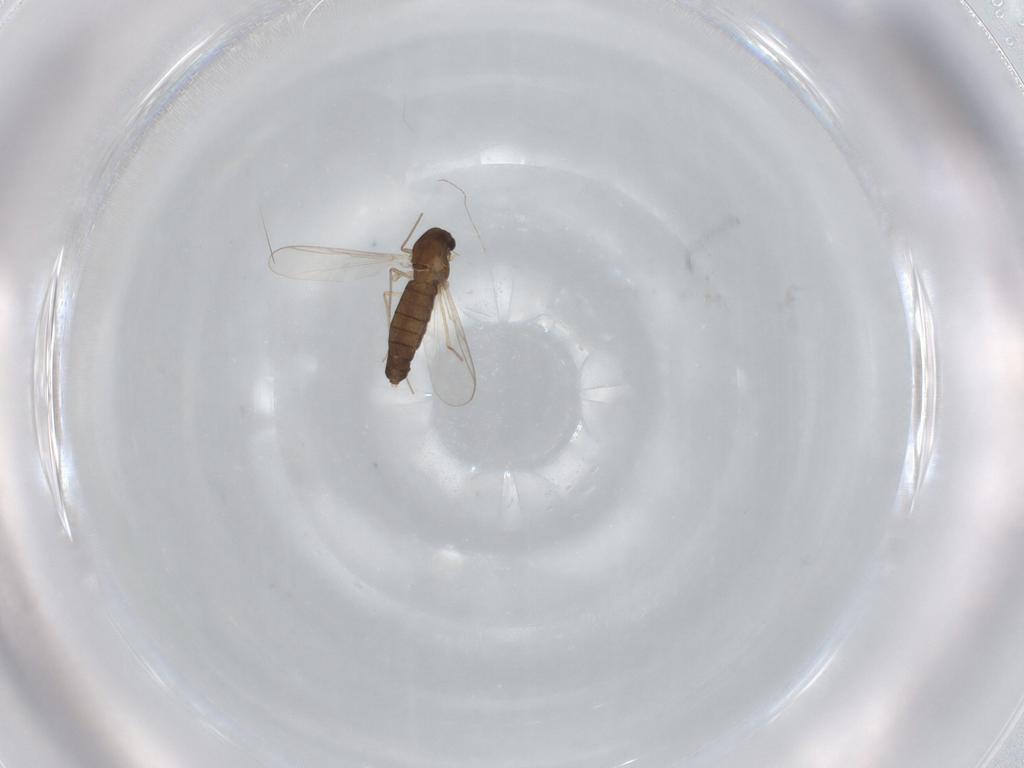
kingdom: Animalia
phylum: Arthropoda
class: Insecta
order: Diptera
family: Chironomidae
